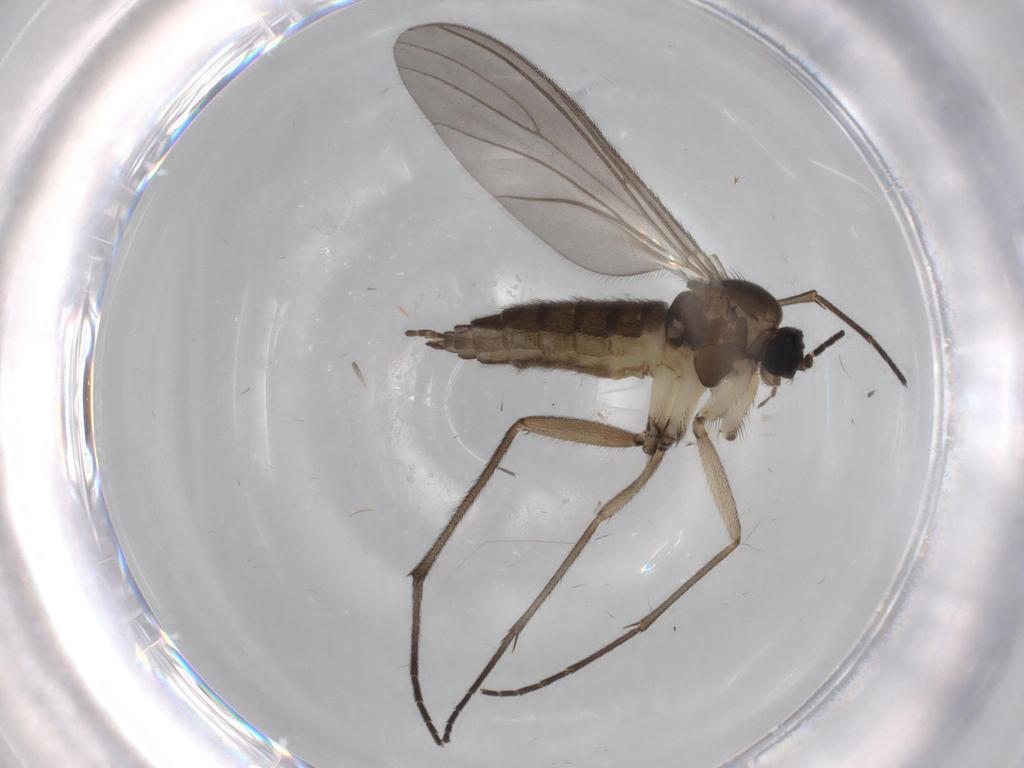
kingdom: Animalia
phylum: Arthropoda
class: Insecta
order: Diptera
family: Sciaridae
